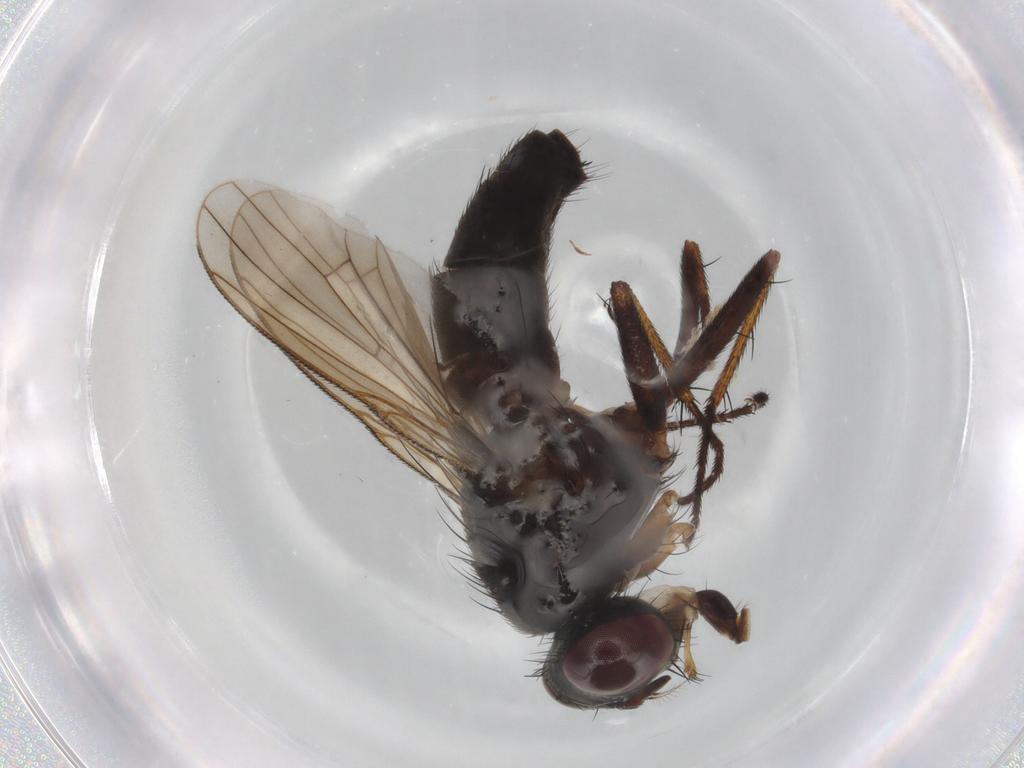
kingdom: Animalia
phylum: Arthropoda
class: Insecta
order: Diptera
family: Muscidae
